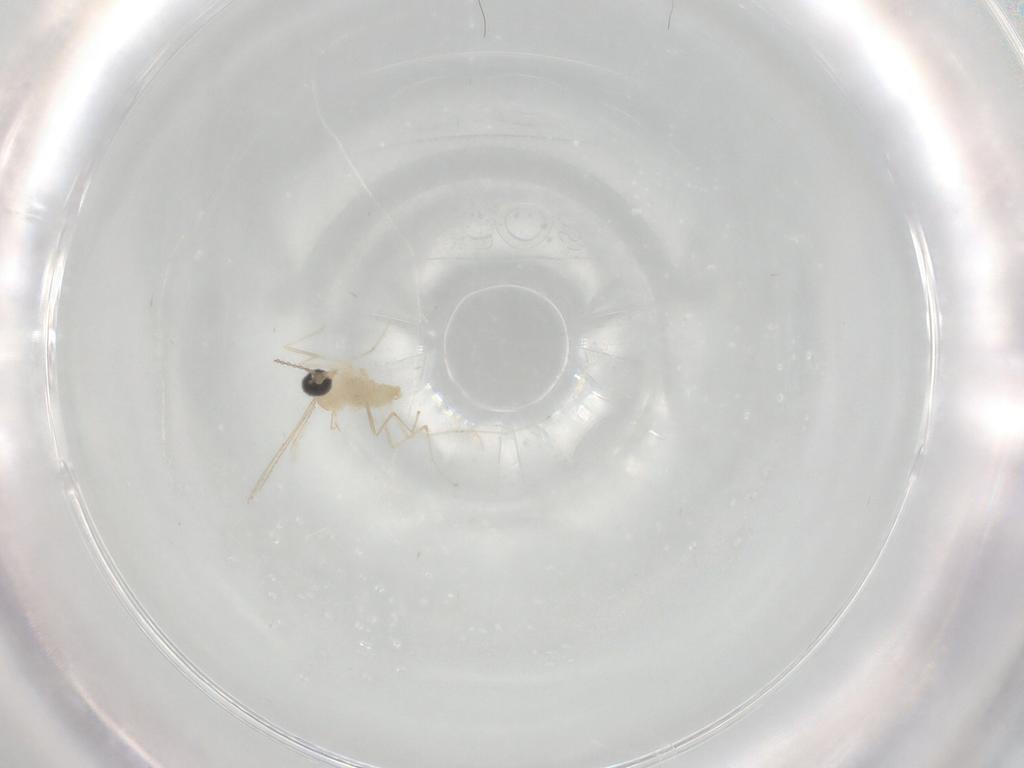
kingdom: Animalia
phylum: Arthropoda
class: Insecta
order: Diptera
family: Cecidomyiidae
